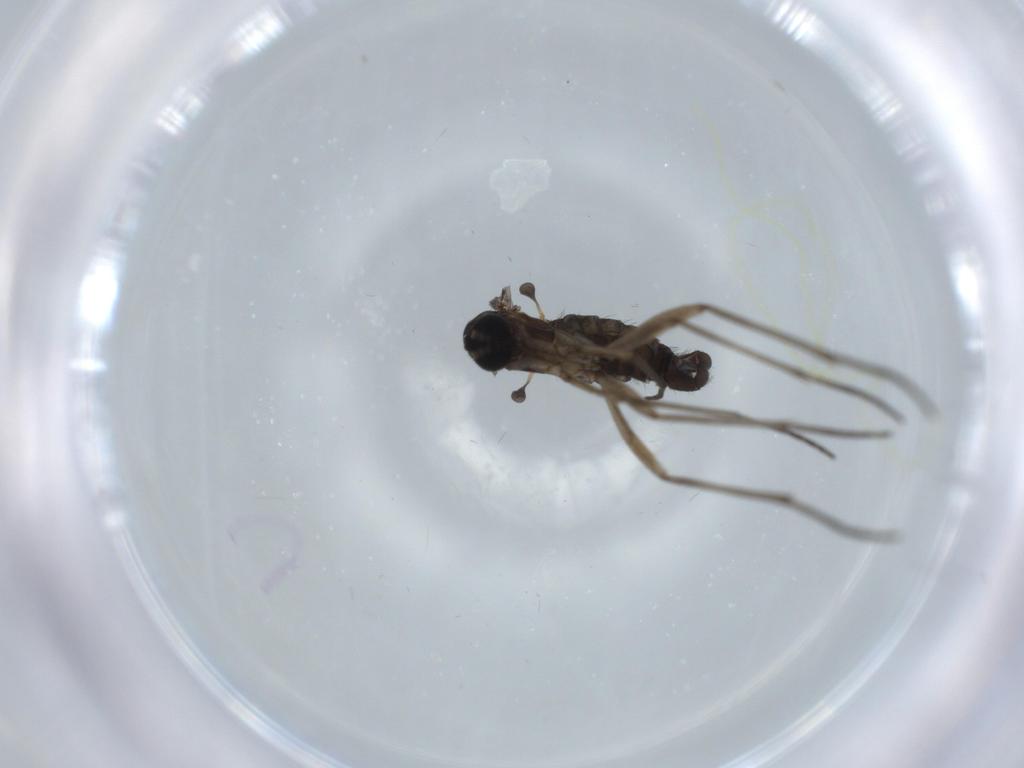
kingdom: Animalia
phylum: Arthropoda
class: Insecta
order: Diptera
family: Sciaridae
